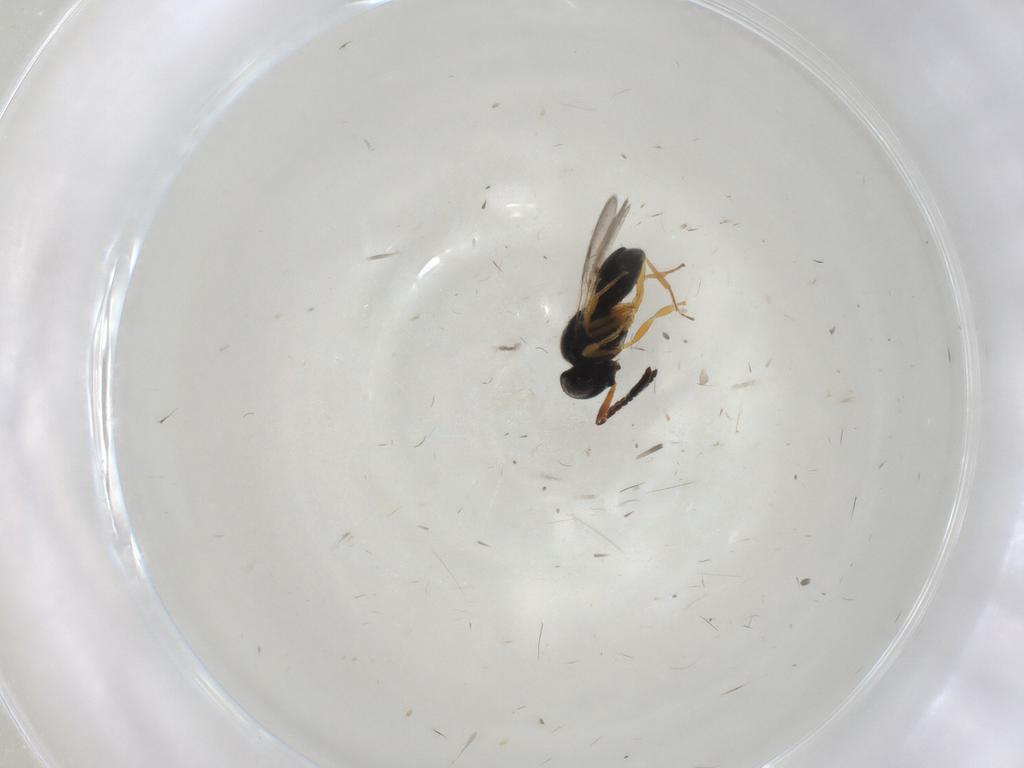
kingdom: Animalia
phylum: Arthropoda
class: Insecta
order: Hymenoptera
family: Scelionidae
